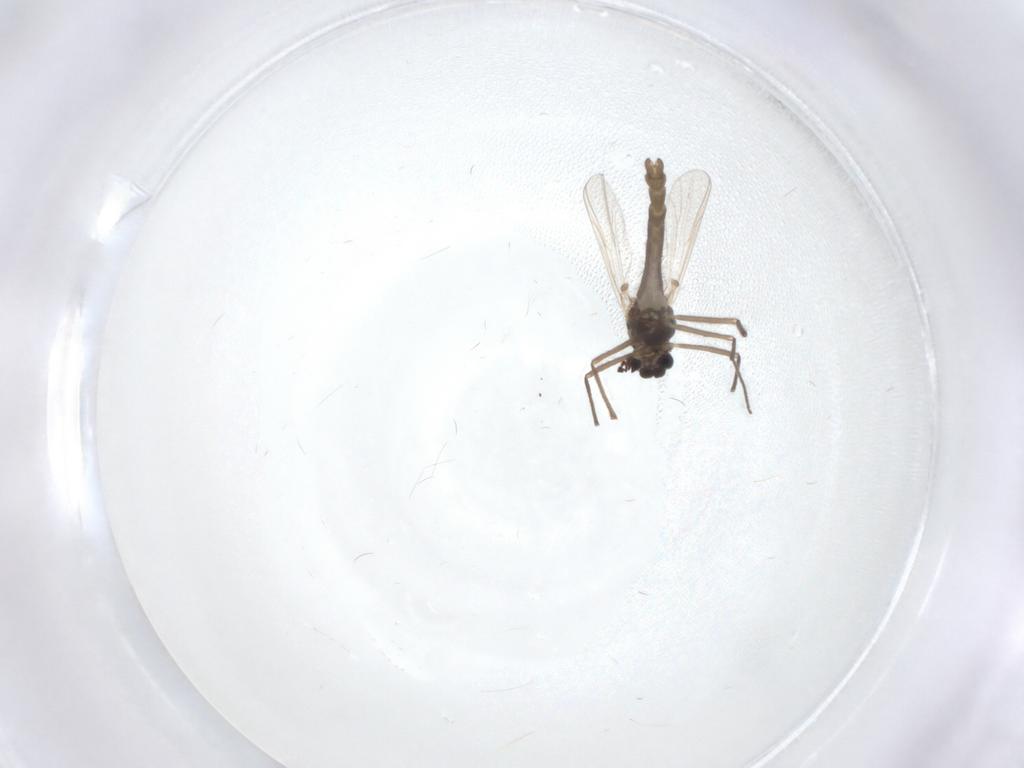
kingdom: Animalia
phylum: Arthropoda
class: Insecta
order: Diptera
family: Chironomidae
